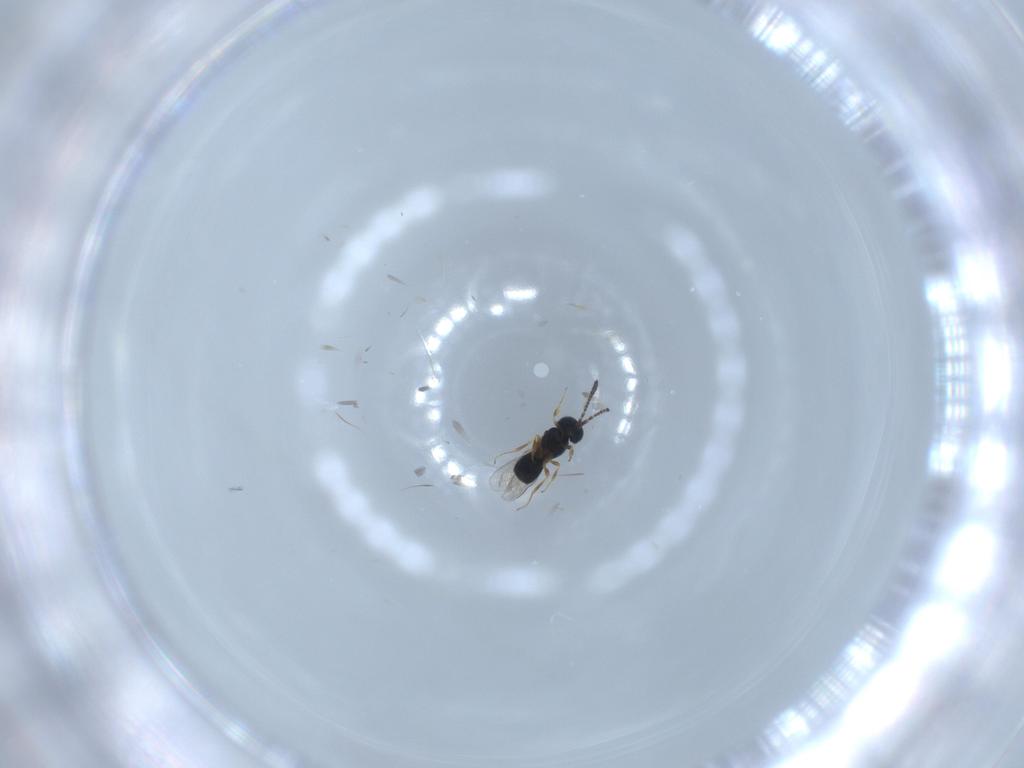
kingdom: Animalia
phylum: Arthropoda
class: Insecta
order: Hymenoptera
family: Scelionidae
